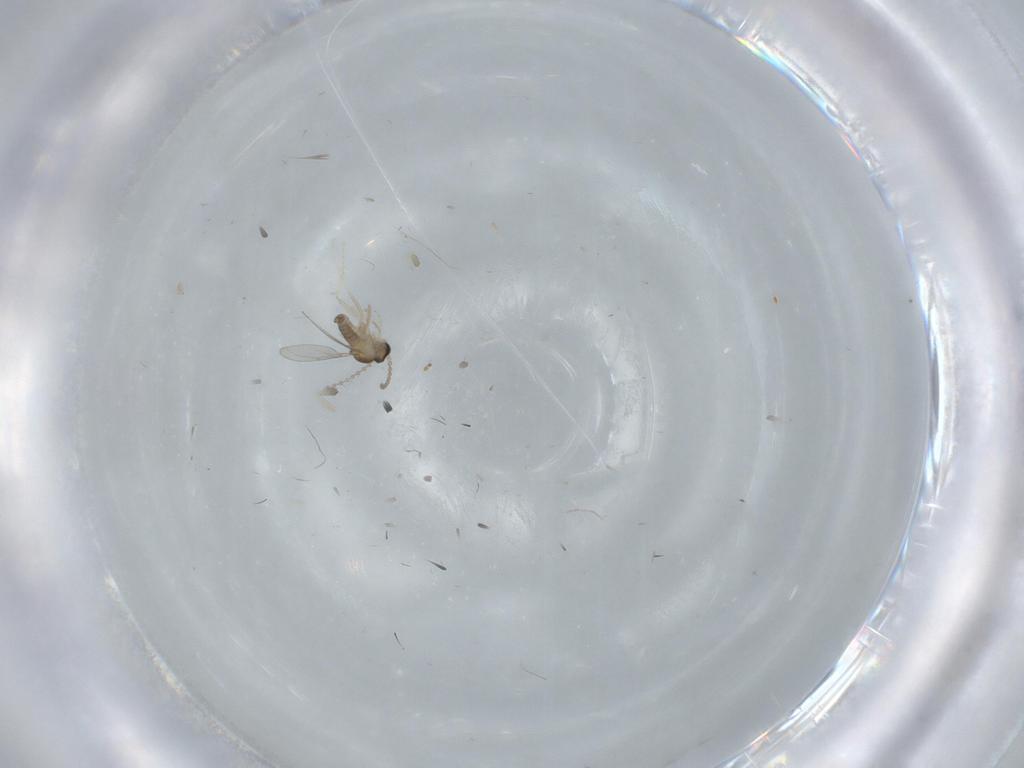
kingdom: Animalia
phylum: Arthropoda
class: Insecta
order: Diptera
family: Cecidomyiidae
